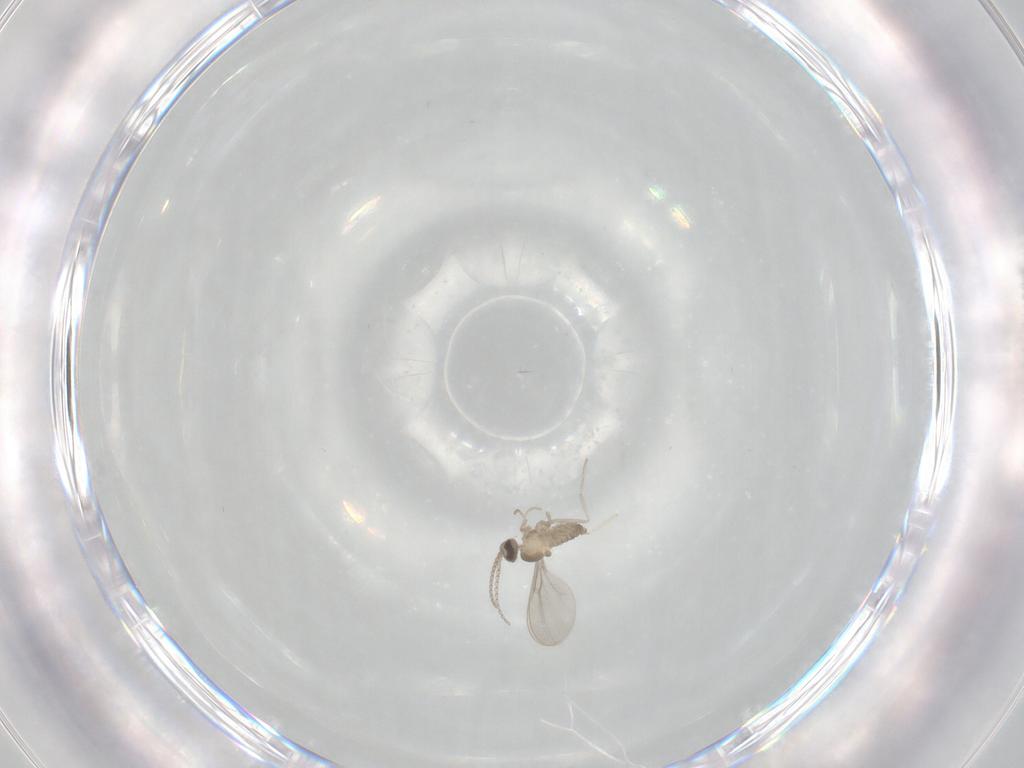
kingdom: Animalia
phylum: Arthropoda
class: Insecta
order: Diptera
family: Cecidomyiidae
